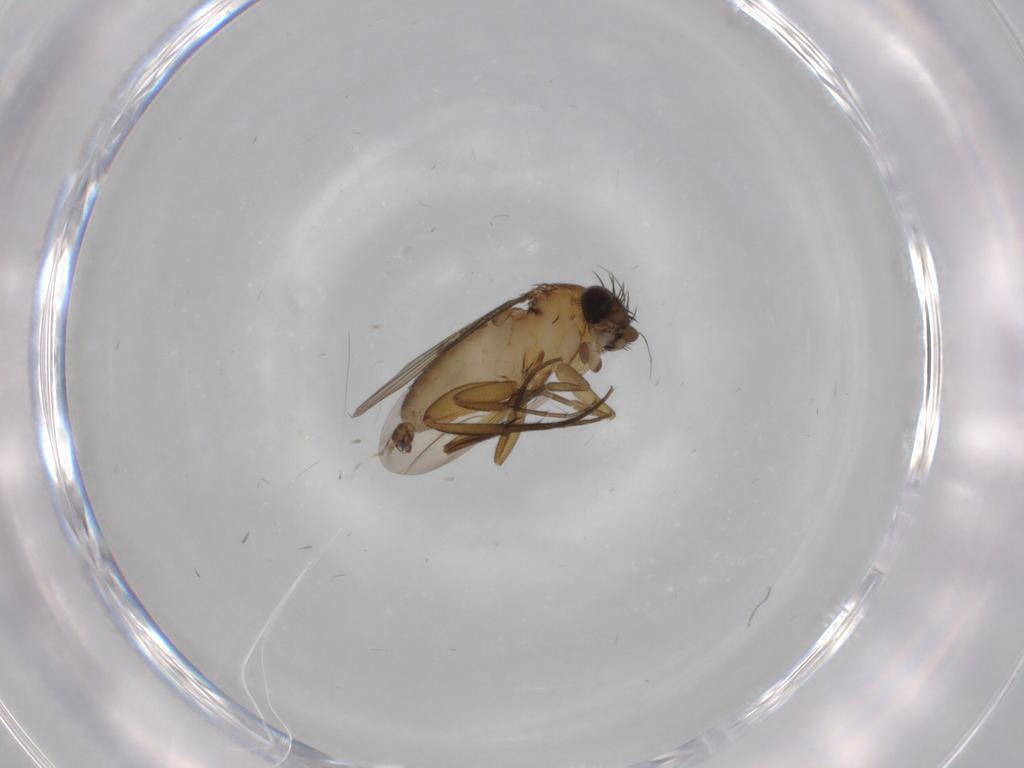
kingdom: Animalia
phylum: Arthropoda
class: Insecta
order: Diptera
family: Phoridae
